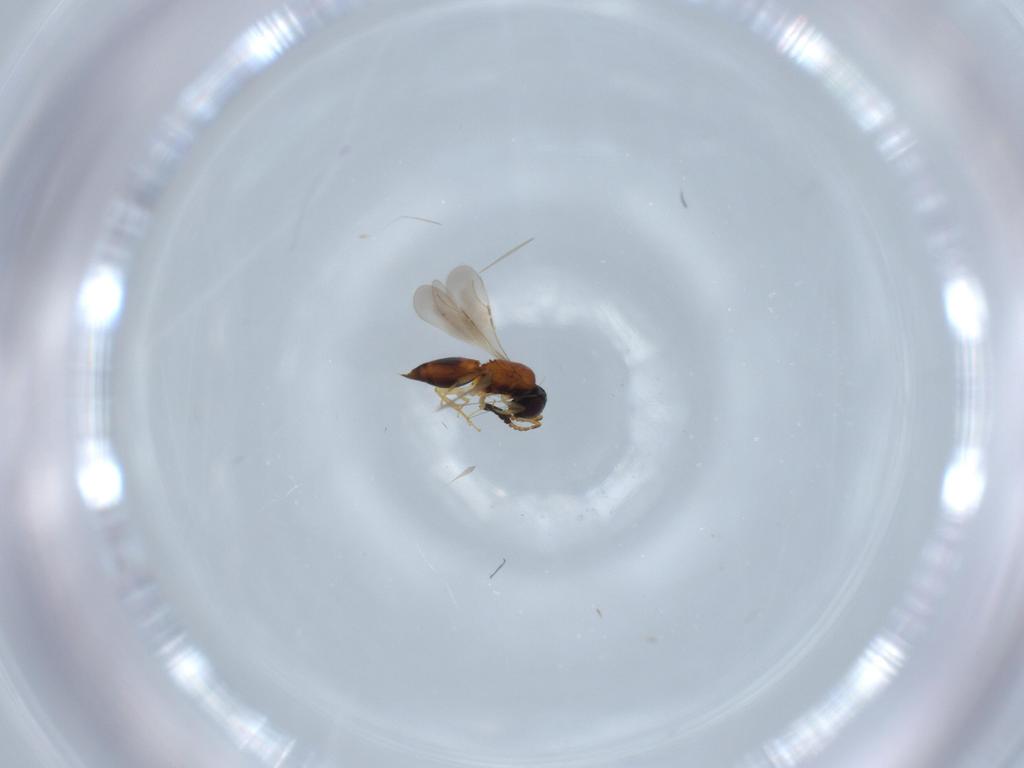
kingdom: Animalia
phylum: Arthropoda
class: Insecta
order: Hymenoptera
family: Ceraphronidae
